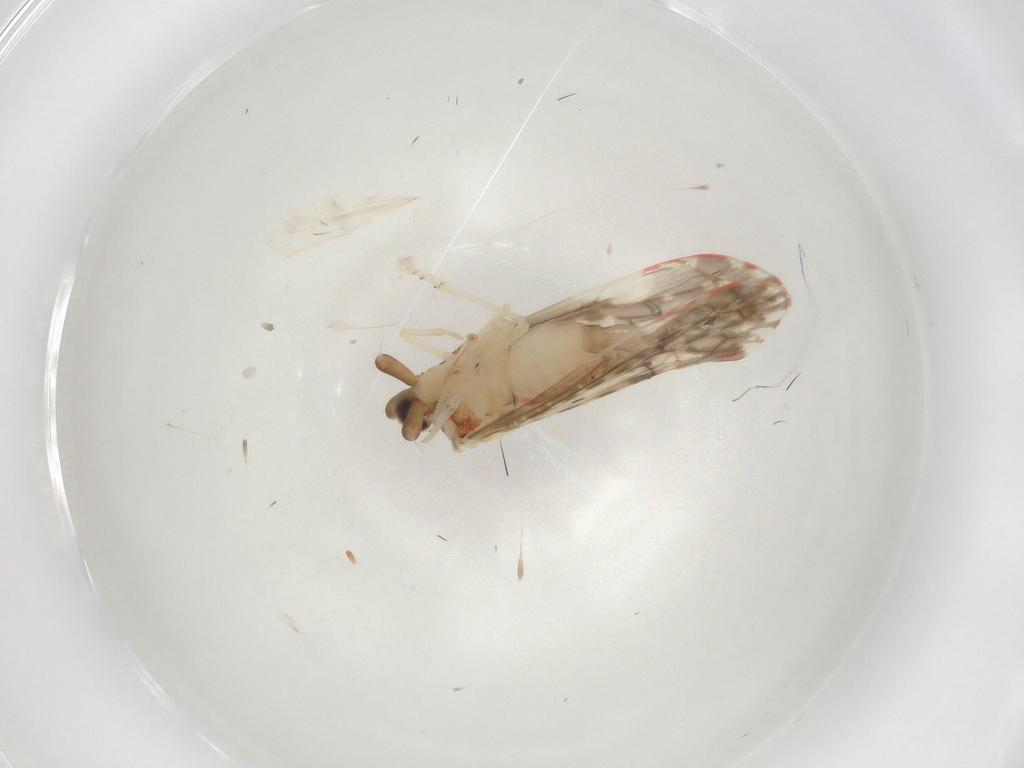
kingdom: Animalia
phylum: Arthropoda
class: Insecta
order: Hemiptera
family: Derbidae
